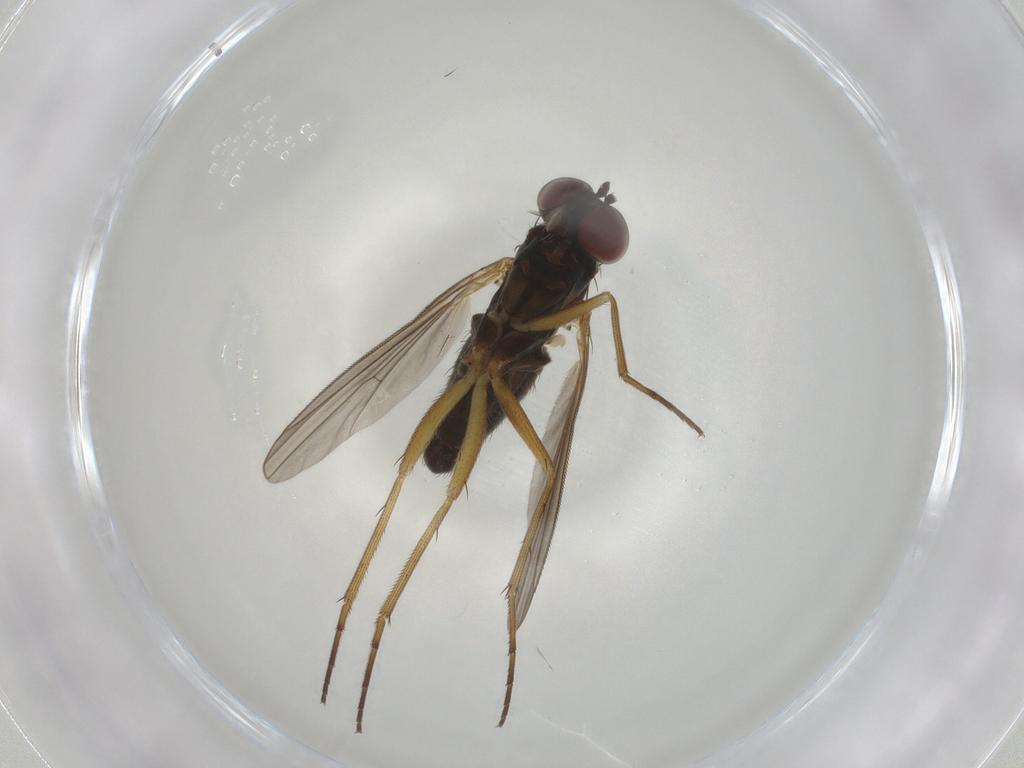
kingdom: Animalia
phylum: Arthropoda
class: Insecta
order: Diptera
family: Dolichopodidae
